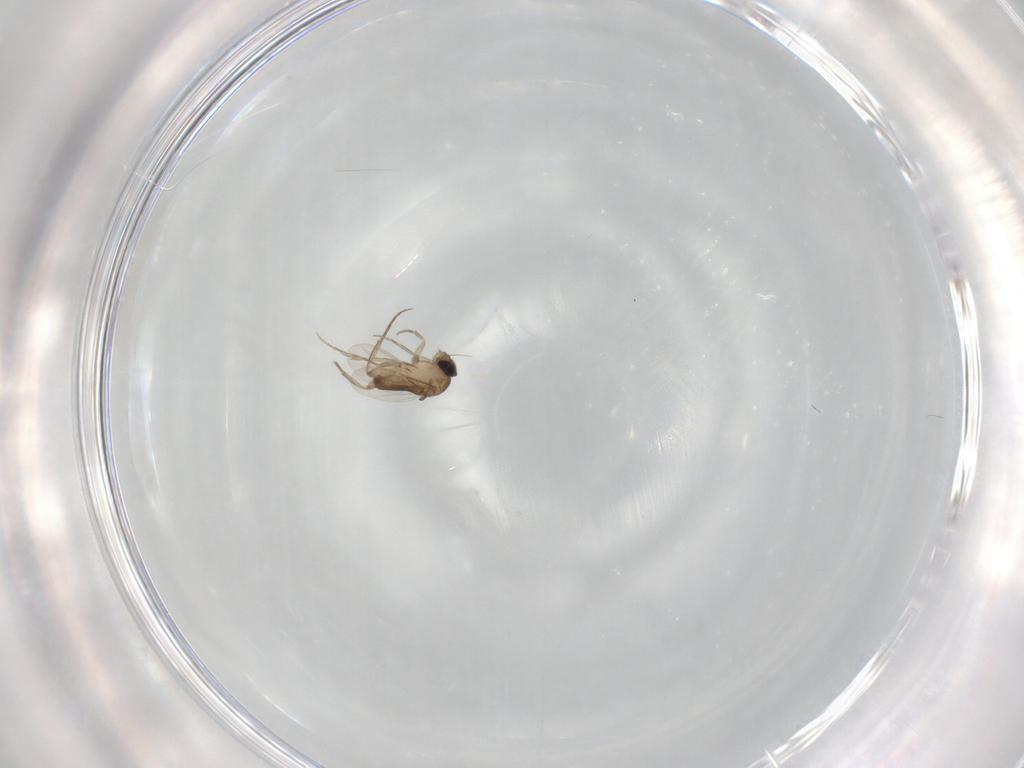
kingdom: Animalia
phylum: Arthropoda
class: Insecta
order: Diptera
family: Phoridae
